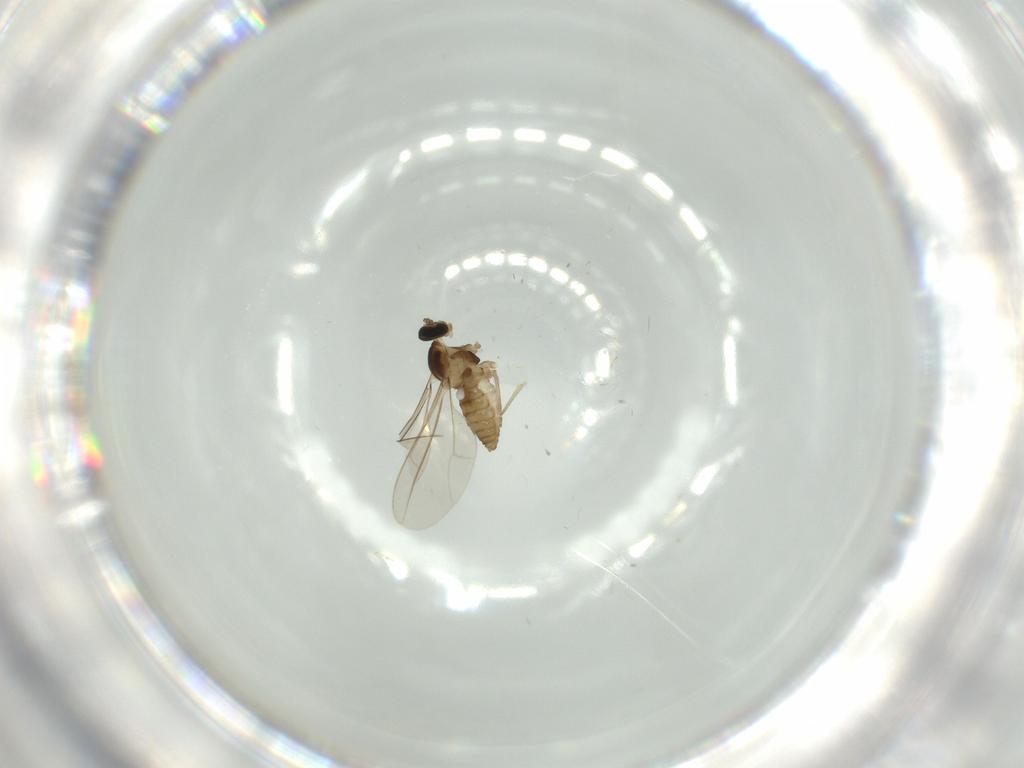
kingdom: Animalia
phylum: Arthropoda
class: Insecta
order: Diptera
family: Cecidomyiidae
